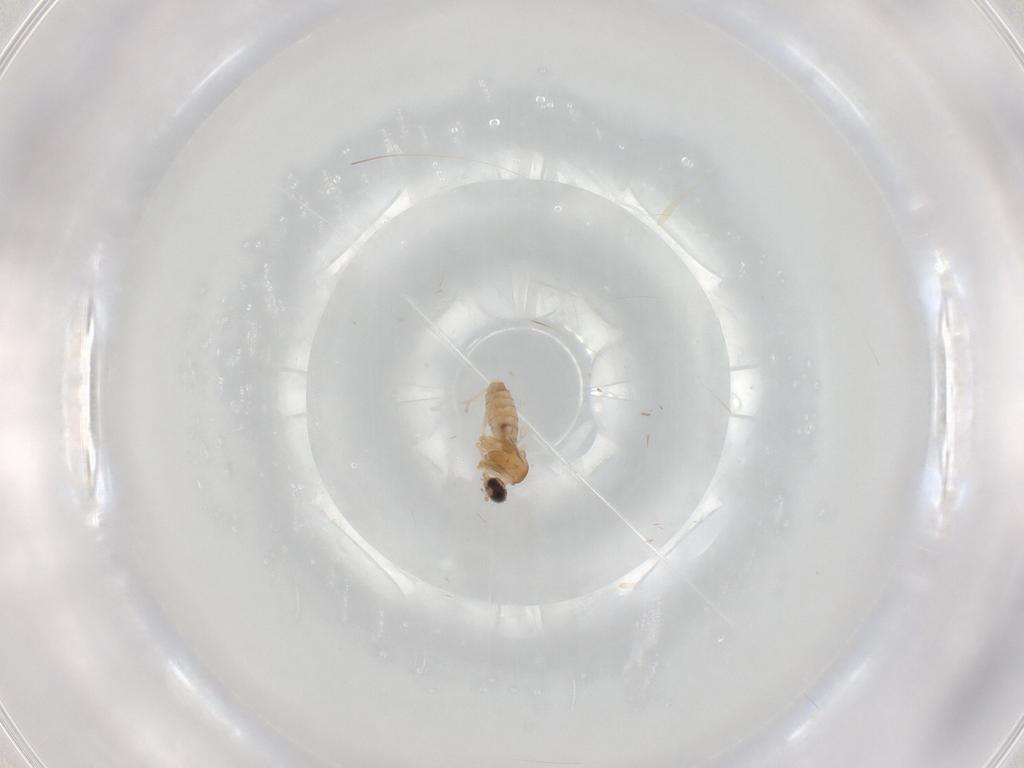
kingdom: Animalia
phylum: Arthropoda
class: Insecta
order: Diptera
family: Cecidomyiidae
